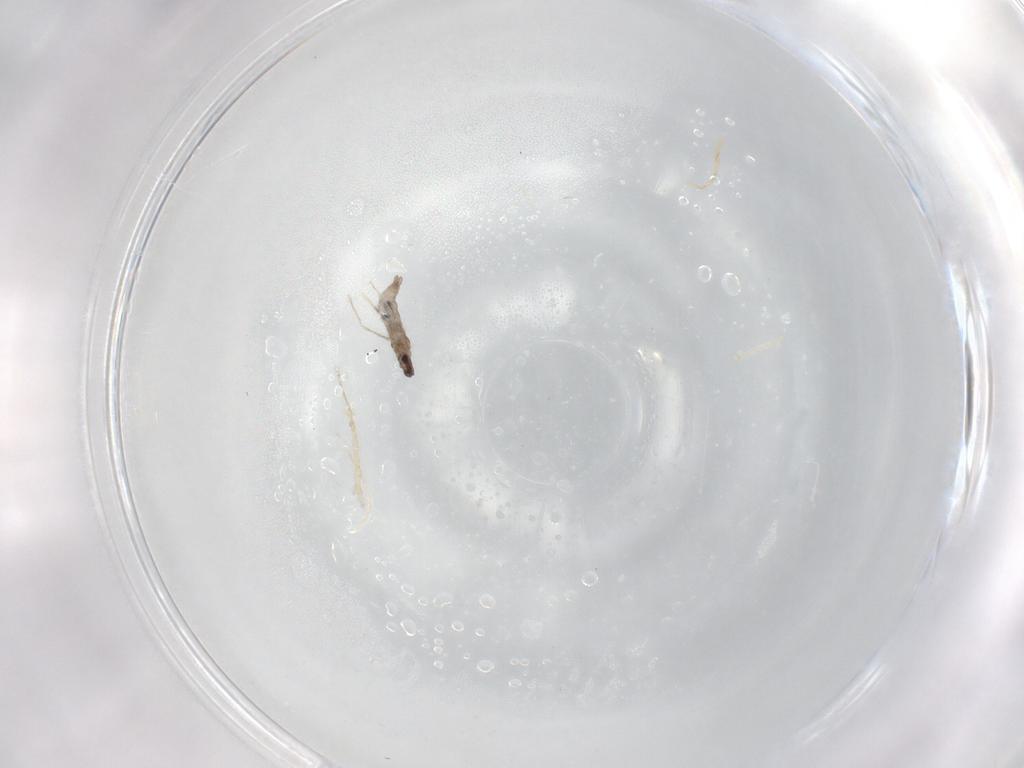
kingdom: Animalia
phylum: Arthropoda
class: Insecta
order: Diptera
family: Cecidomyiidae
